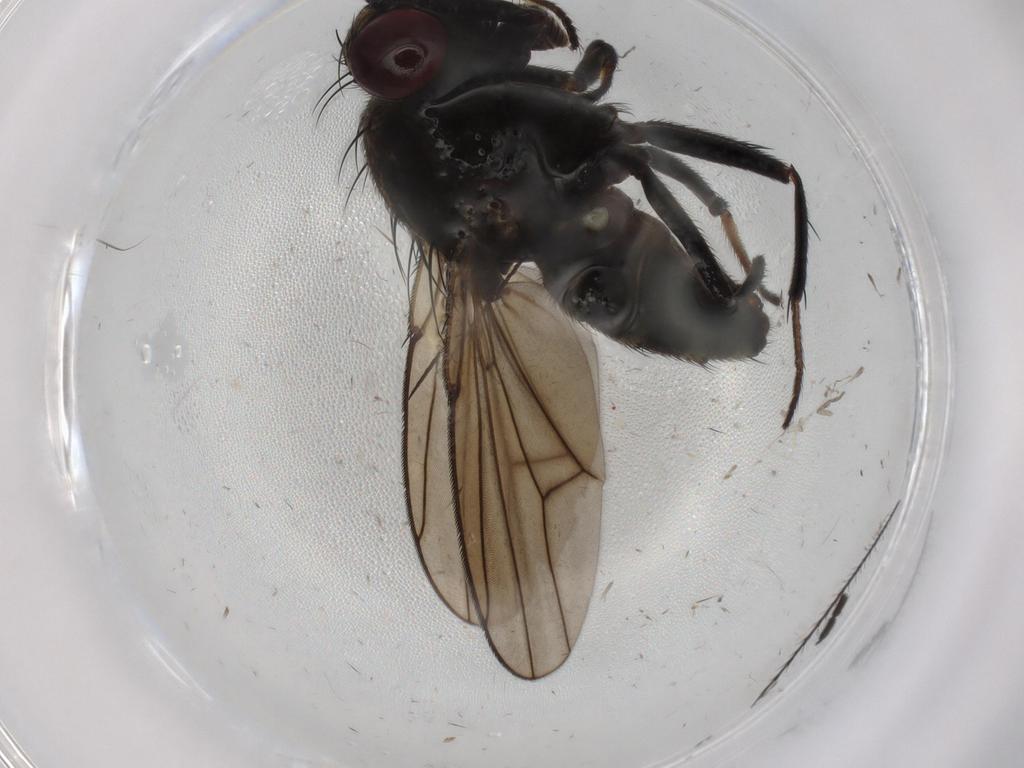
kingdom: Animalia
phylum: Arthropoda
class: Insecta
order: Diptera
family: Ephydridae
